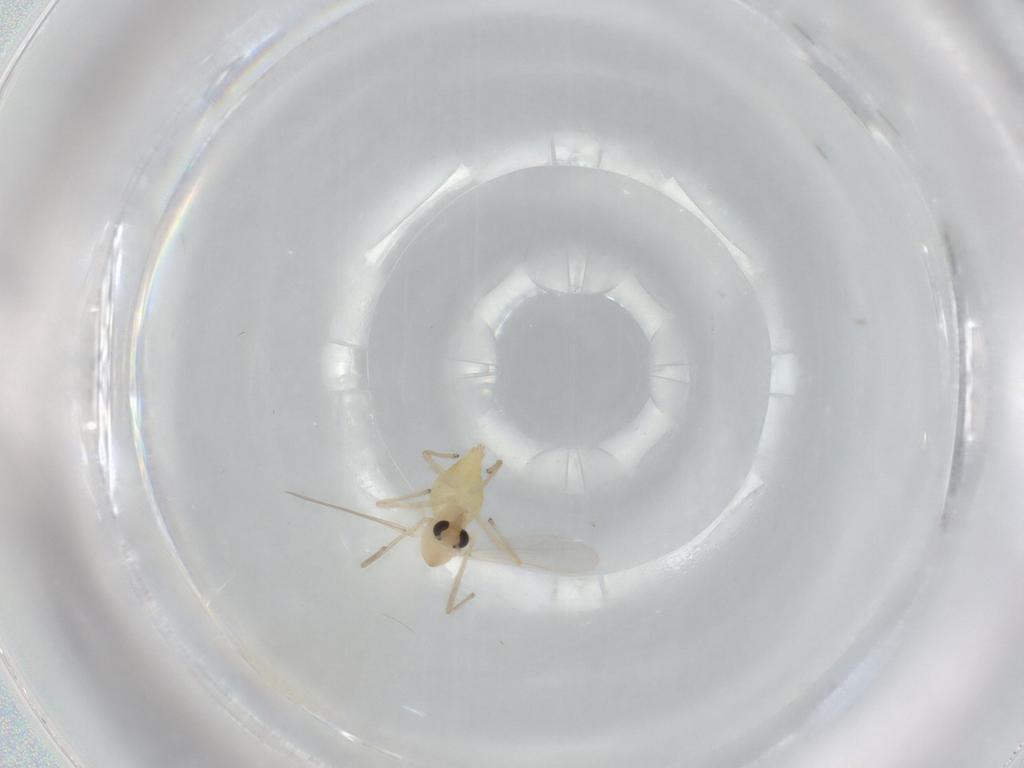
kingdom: Animalia
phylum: Arthropoda
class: Insecta
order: Diptera
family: Chironomidae
